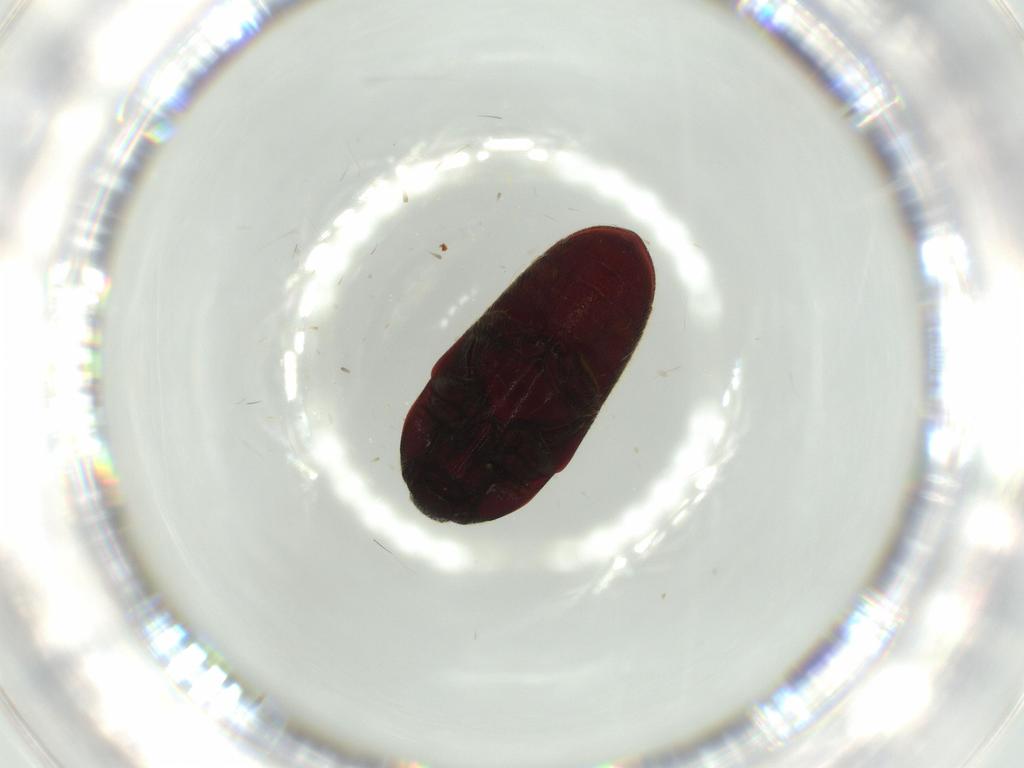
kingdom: Animalia
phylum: Arthropoda
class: Insecta
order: Coleoptera
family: Throscidae
